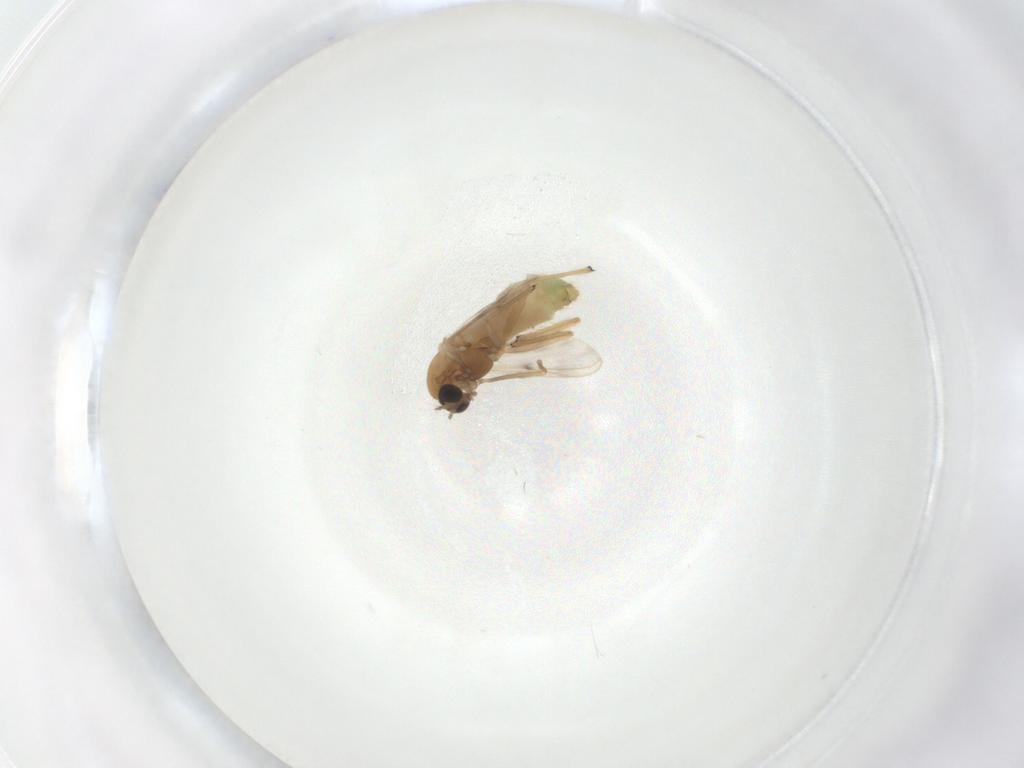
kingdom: Animalia
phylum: Arthropoda
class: Insecta
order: Diptera
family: Chironomidae
